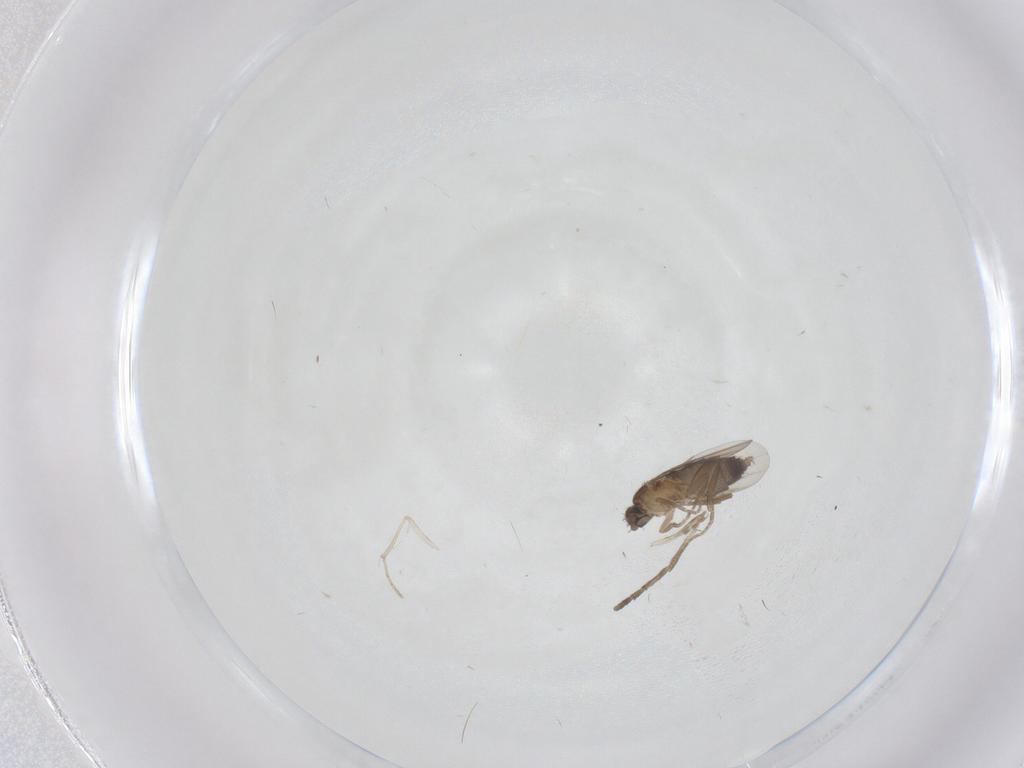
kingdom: Animalia
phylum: Arthropoda
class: Insecta
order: Diptera
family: Phoridae
